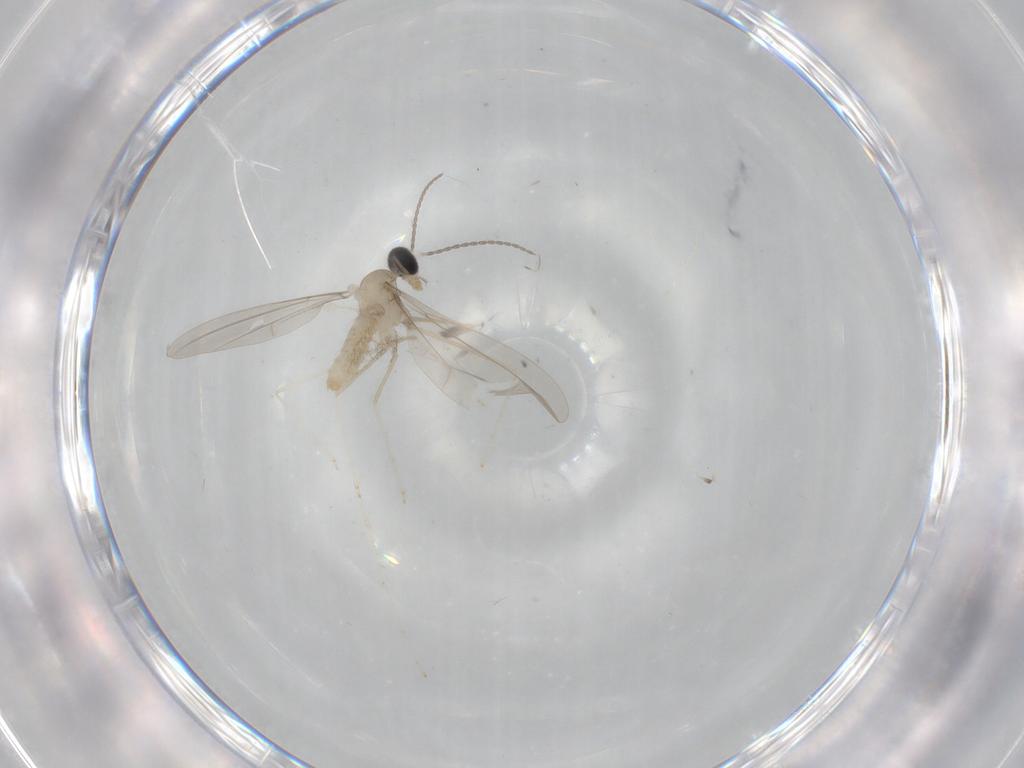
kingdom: Animalia
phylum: Arthropoda
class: Insecta
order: Diptera
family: Cecidomyiidae
